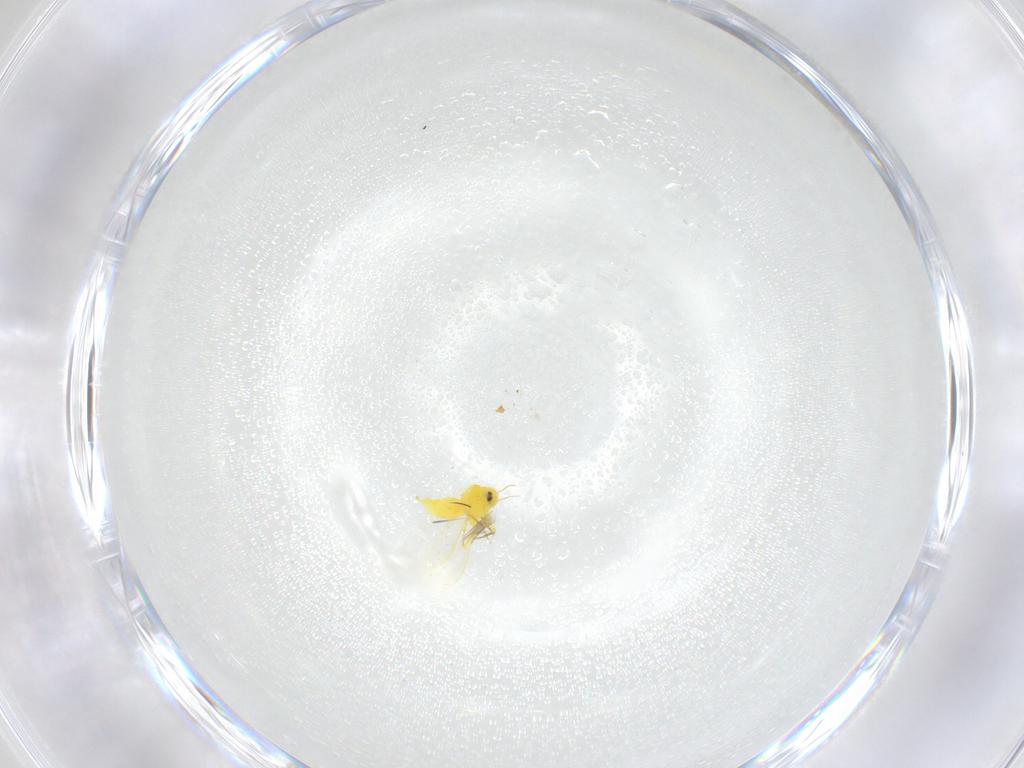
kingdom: Animalia
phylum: Arthropoda
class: Insecta
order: Hemiptera
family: Aleyrodidae
